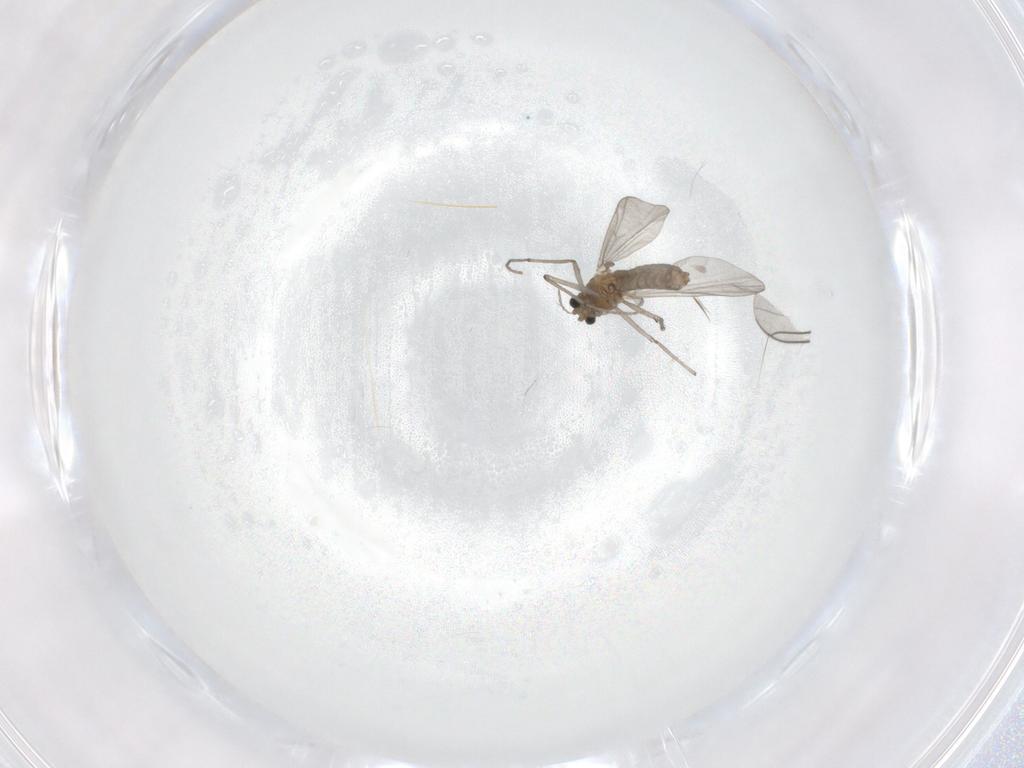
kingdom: Animalia
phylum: Arthropoda
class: Insecta
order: Diptera
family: Chironomidae
